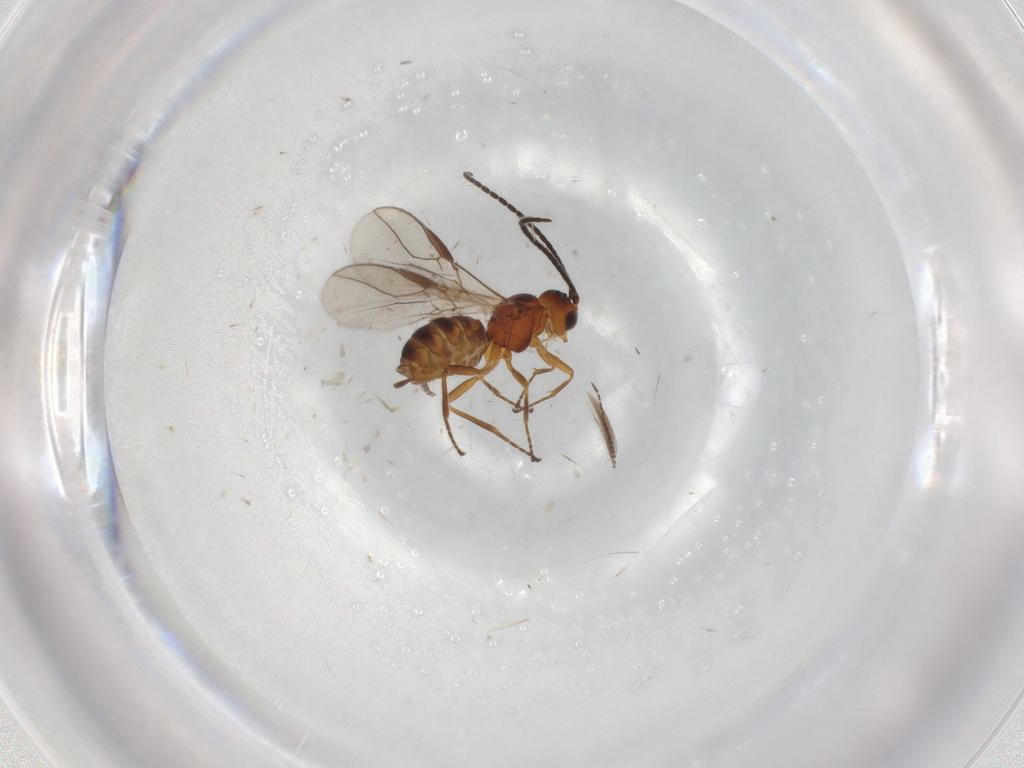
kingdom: Animalia
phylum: Arthropoda
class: Insecta
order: Hymenoptera
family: Braconidae
